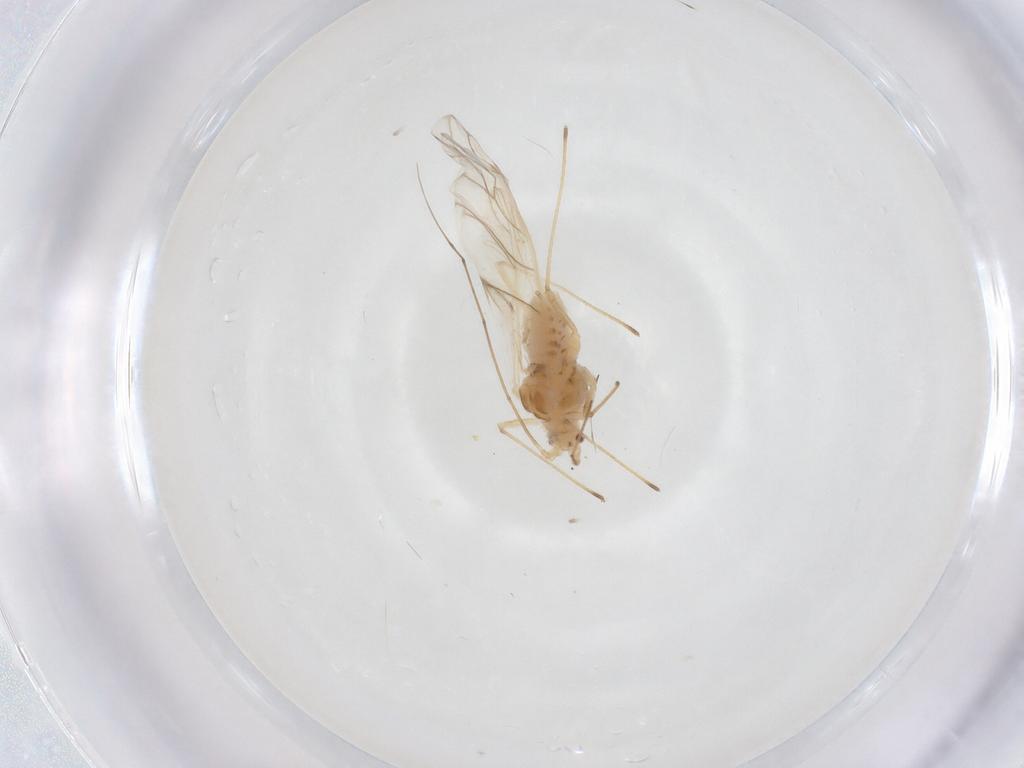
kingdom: Animalia
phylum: Arthropoda
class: Insecta
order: Hemiptera
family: Aphididae
